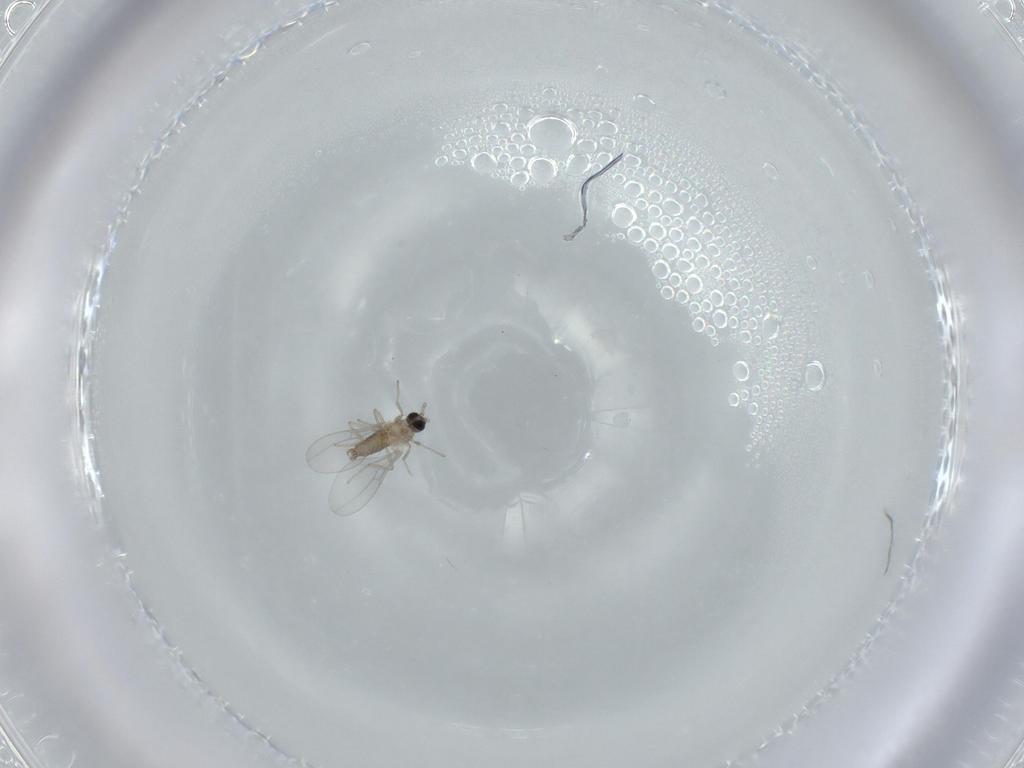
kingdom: Animalia
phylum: Arthropoda
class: Insecta
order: Diptera
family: Cecidomyiidae
